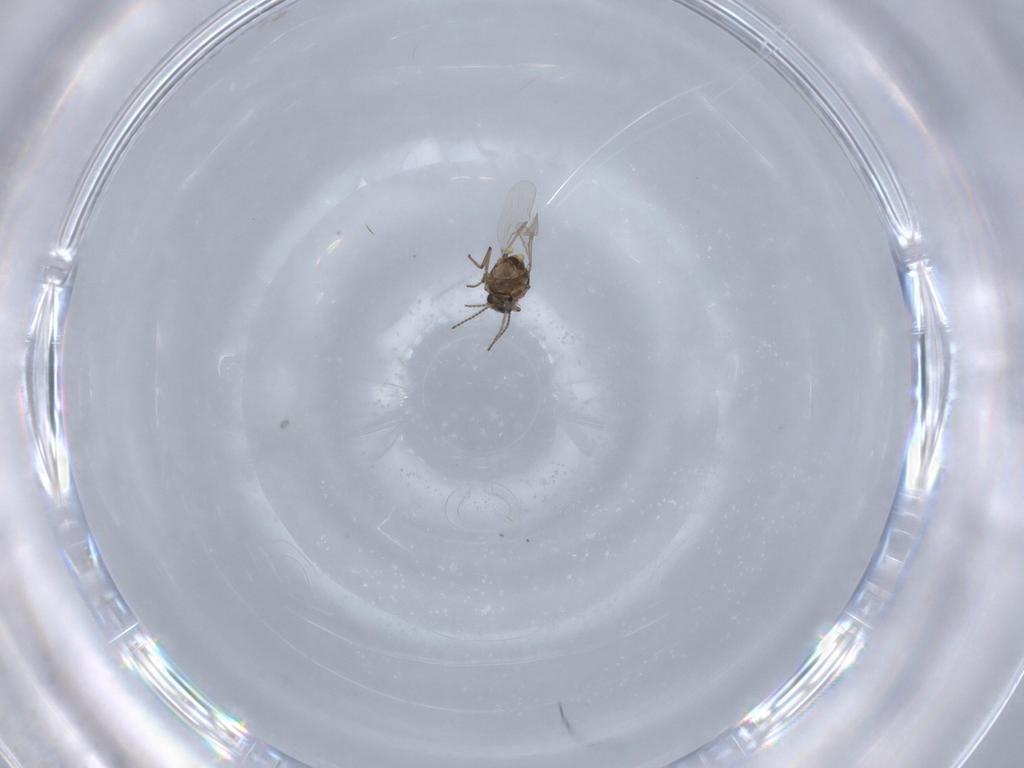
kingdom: Animalia
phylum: Arthropoda
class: Insecta
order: Diptera
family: Ceratopogonidae
